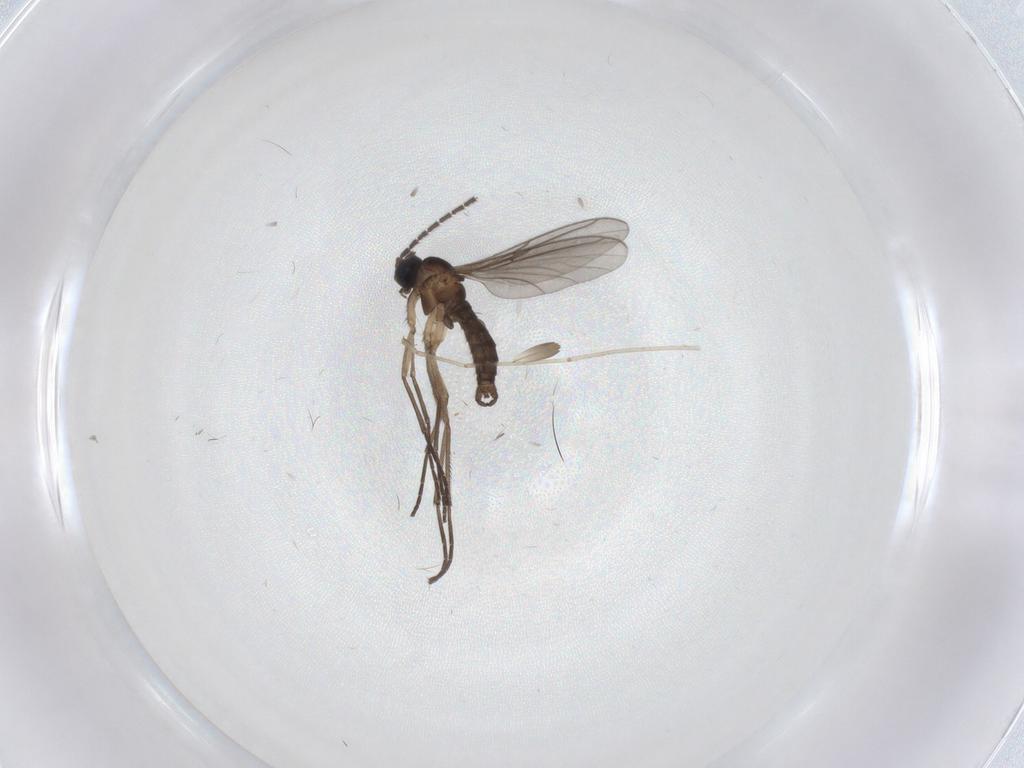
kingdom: Animalia
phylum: Arthropoda
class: Insecta
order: Diptera
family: Sciaridae
